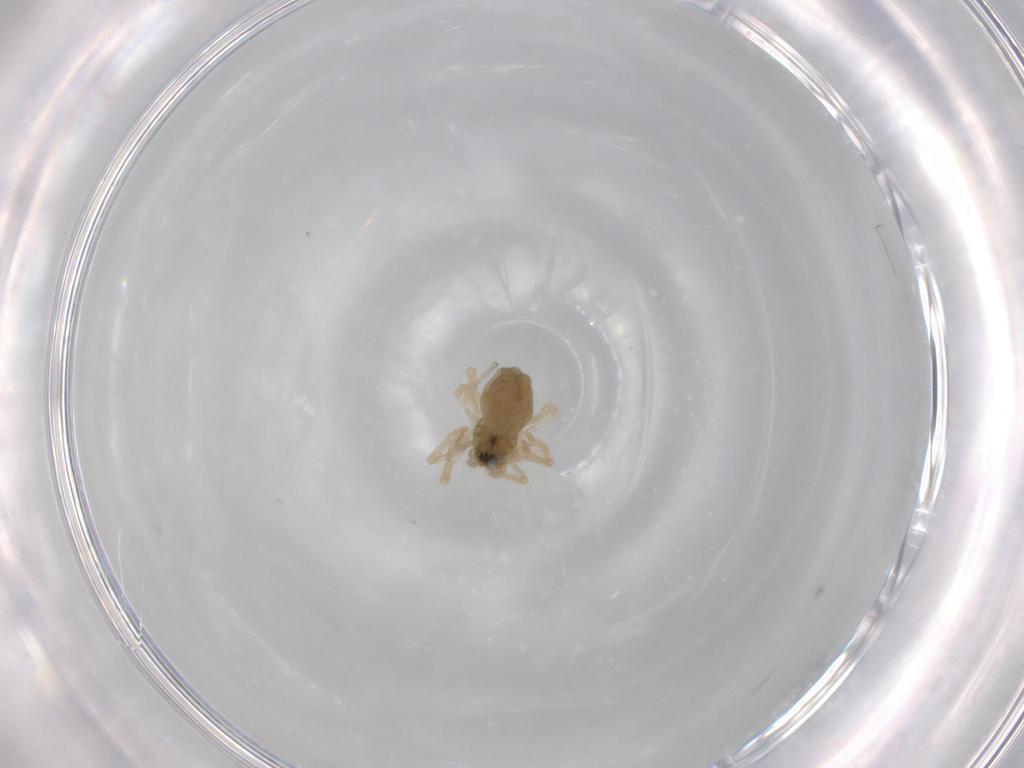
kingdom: Animalia
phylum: Arthropoda
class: Arachnida
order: Araneae
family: Linyphiidae
